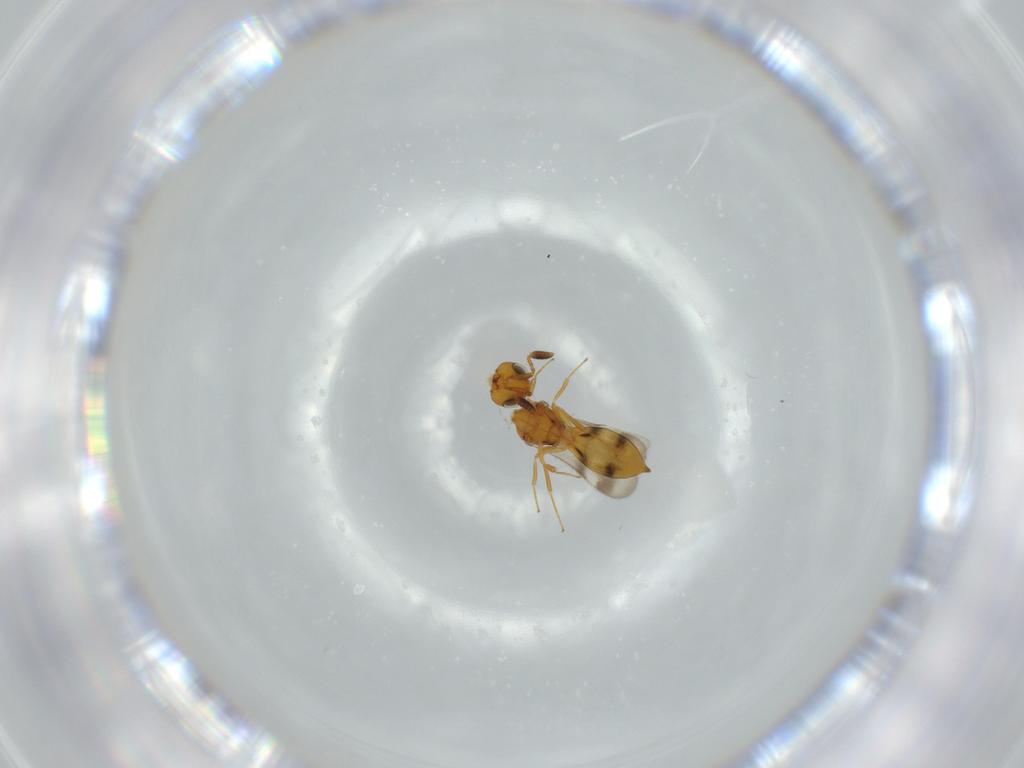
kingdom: Animalia
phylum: Arthropoda
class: Insecta
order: Hymenoptera
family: Scelionidae
